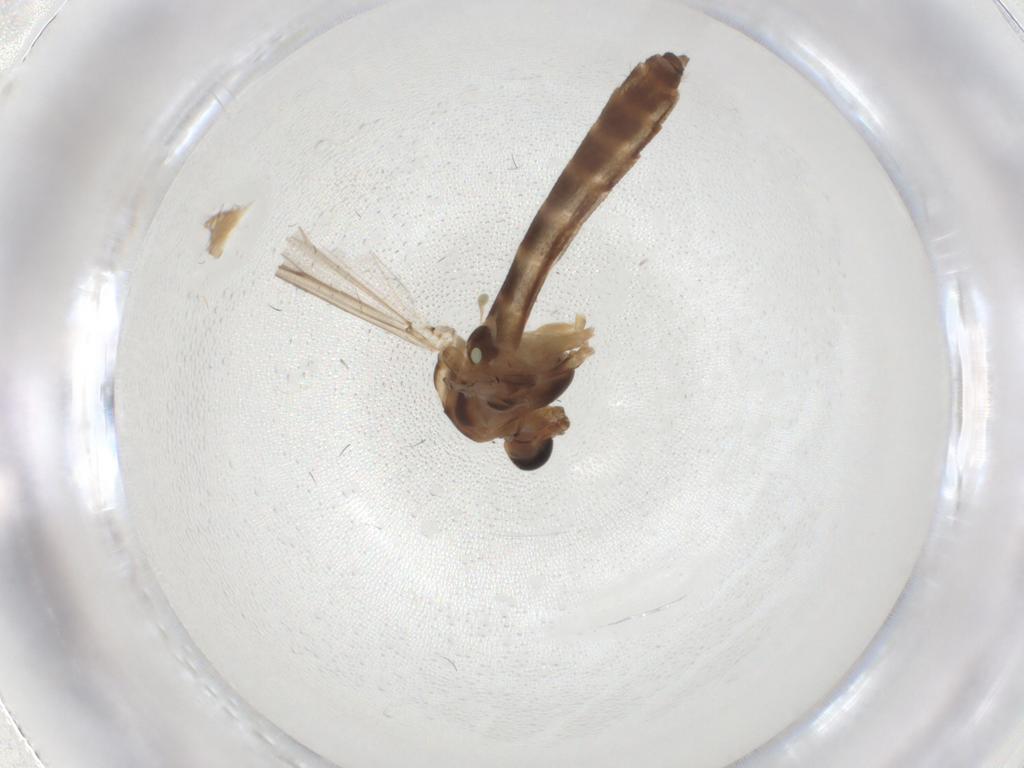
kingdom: Animalia
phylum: Arthropoda
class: Insecta
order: Diptera
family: Chironomidae
